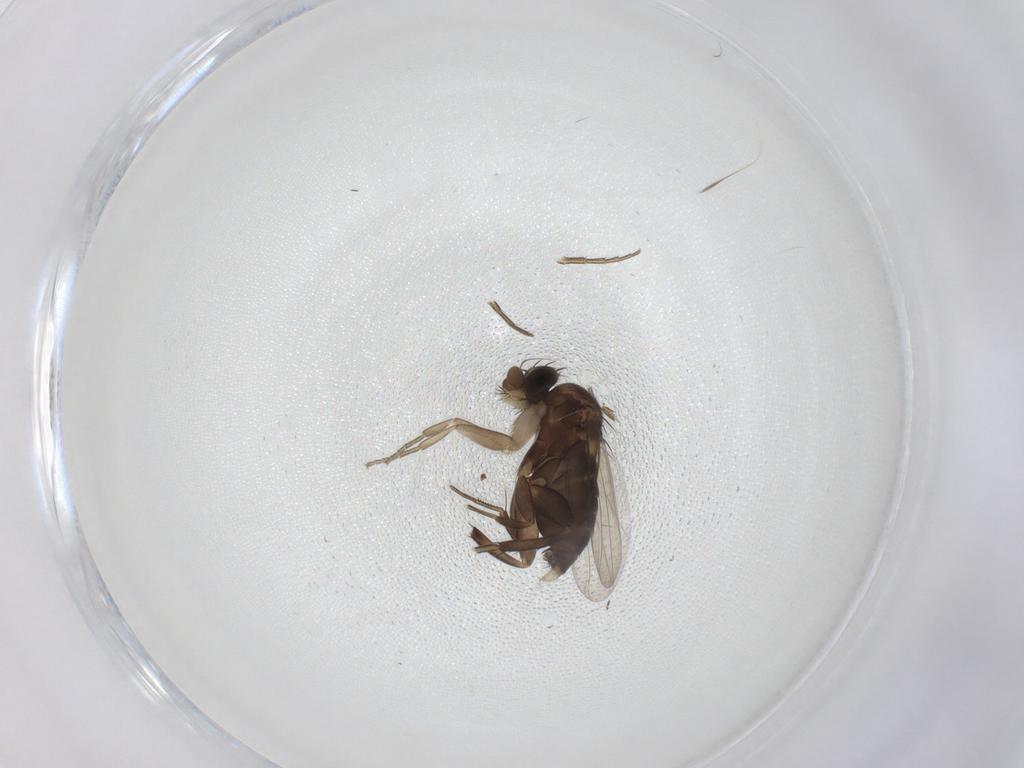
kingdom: Animalia
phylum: Arthropoda
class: Insecta
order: Diptera
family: Phoridae
